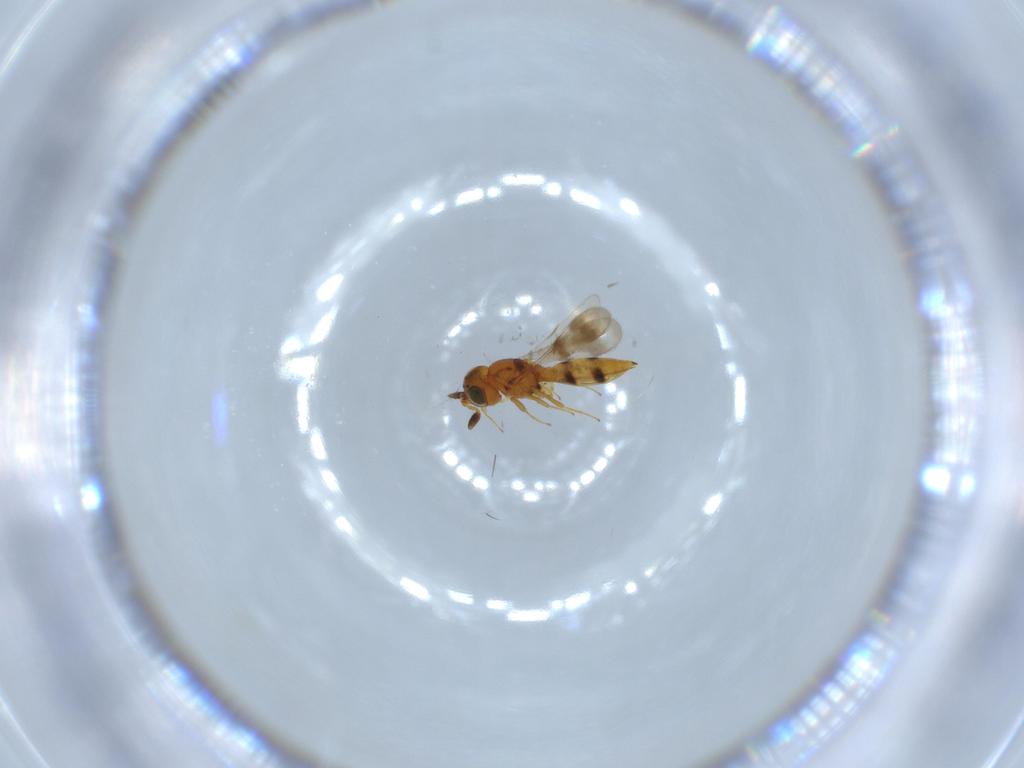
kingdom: Animalia
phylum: Arthropoda
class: Insecta
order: Hymenoptera
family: Scelionidae
